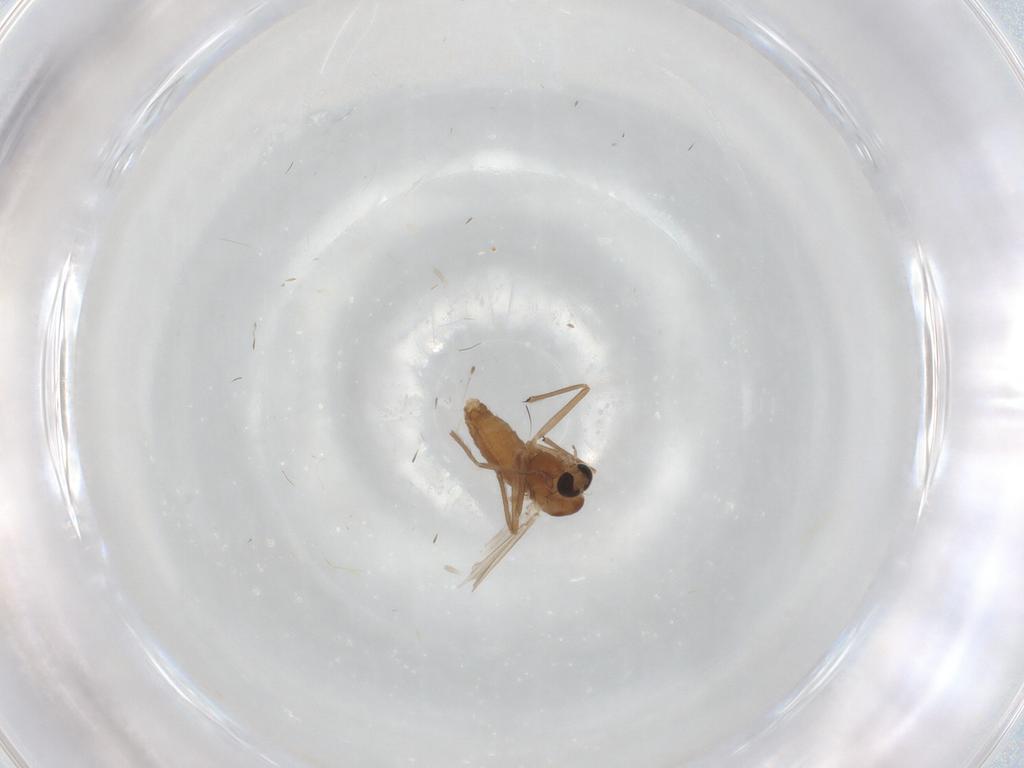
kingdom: Animalia
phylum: Arthropoda
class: Insecta
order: Diptera
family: Chironomidae
